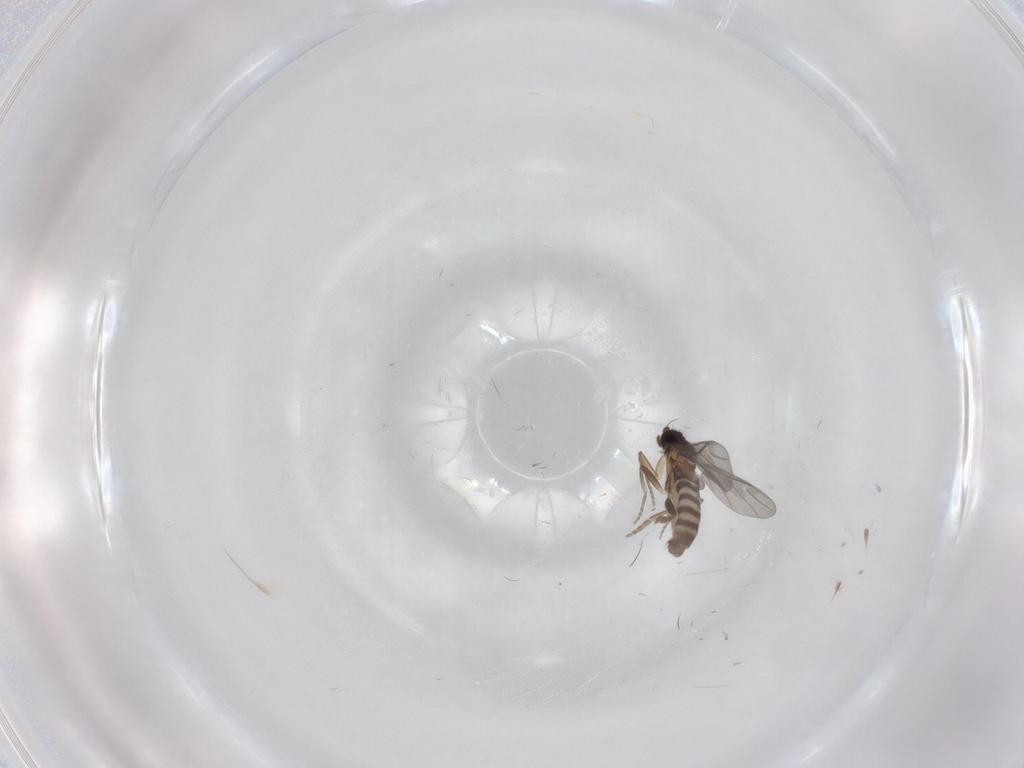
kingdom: Animalia
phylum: Arthropoda
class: Insecta
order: Diptera
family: Cecidomyiidae
